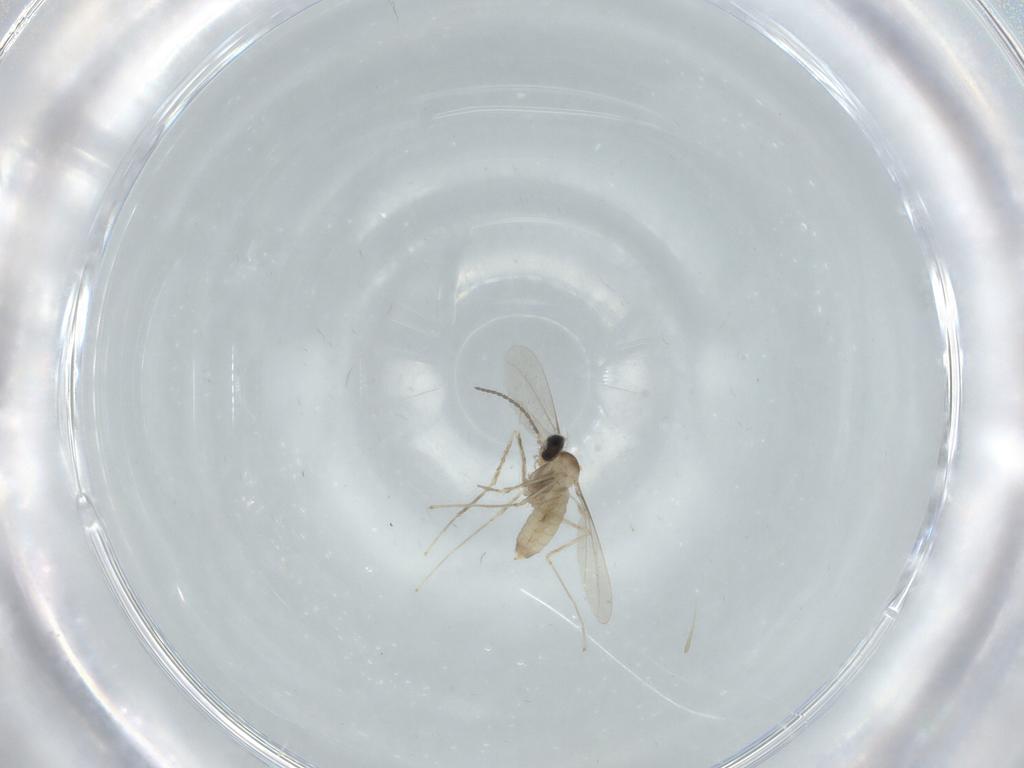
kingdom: Animalia
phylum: Arthropoda
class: Insecta
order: Diptera
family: Cecidomyiidae
